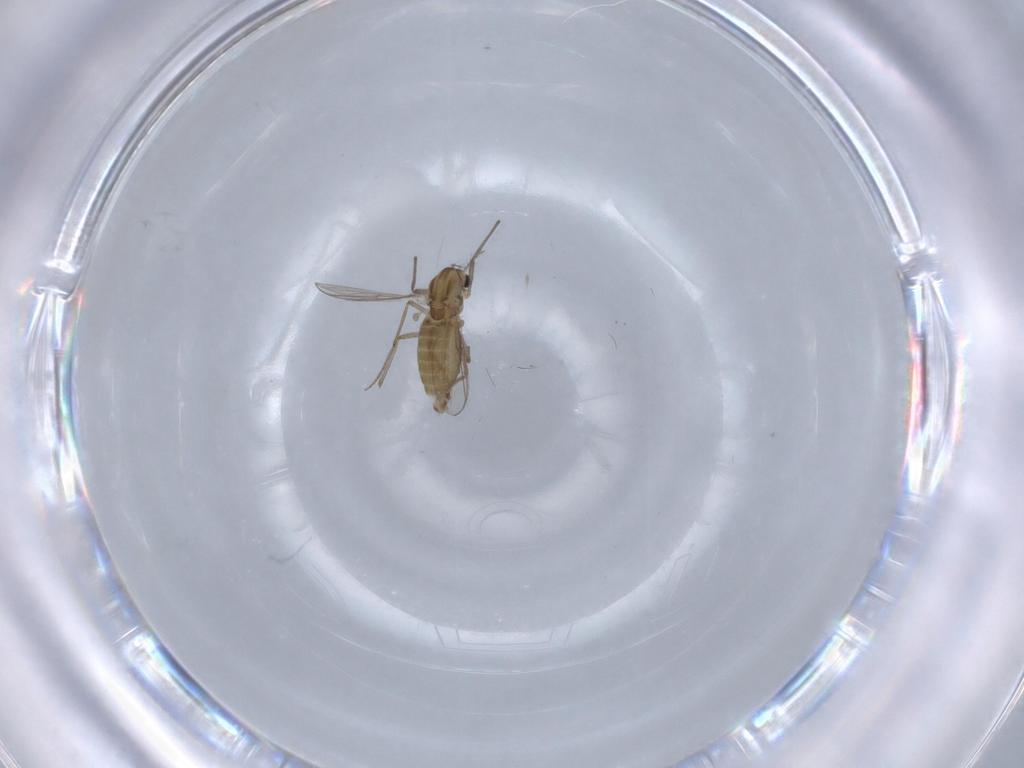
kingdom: Animalia
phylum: Arthropoda
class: Insecta
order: Diptera
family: Chironomidae
